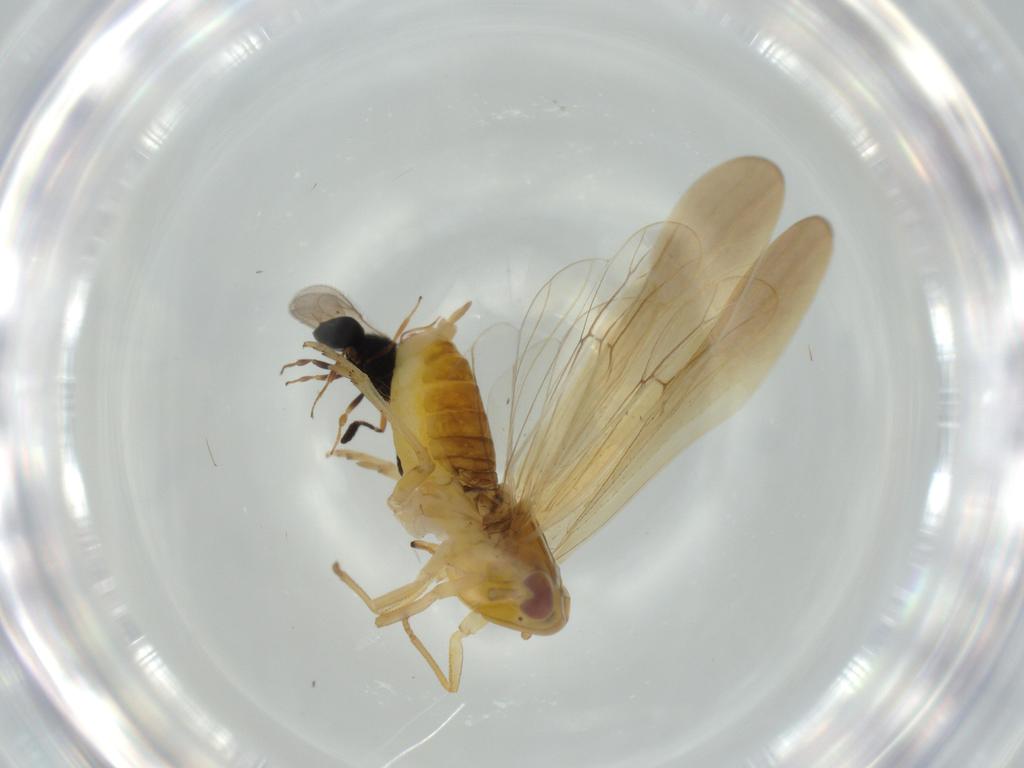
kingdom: Animalia
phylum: Arthropoda
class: Insecta
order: Hemiptera
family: Delphacidae
